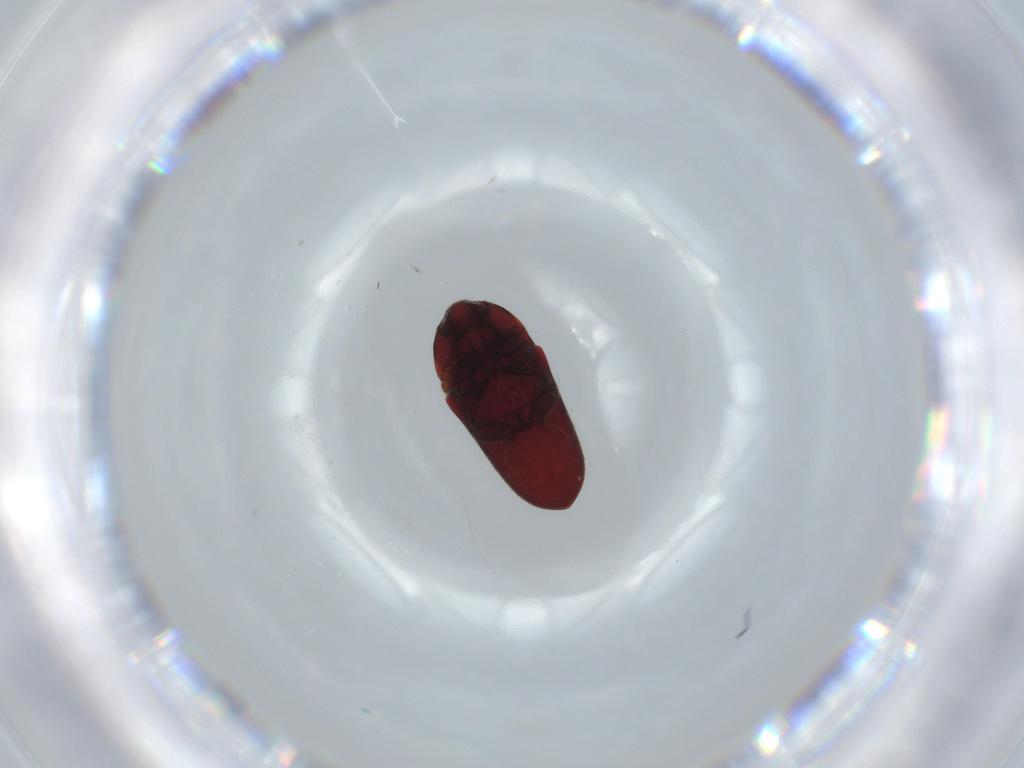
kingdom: Animalia
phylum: Arthropoda
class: Insecta
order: Coleoptera
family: Throscidae
